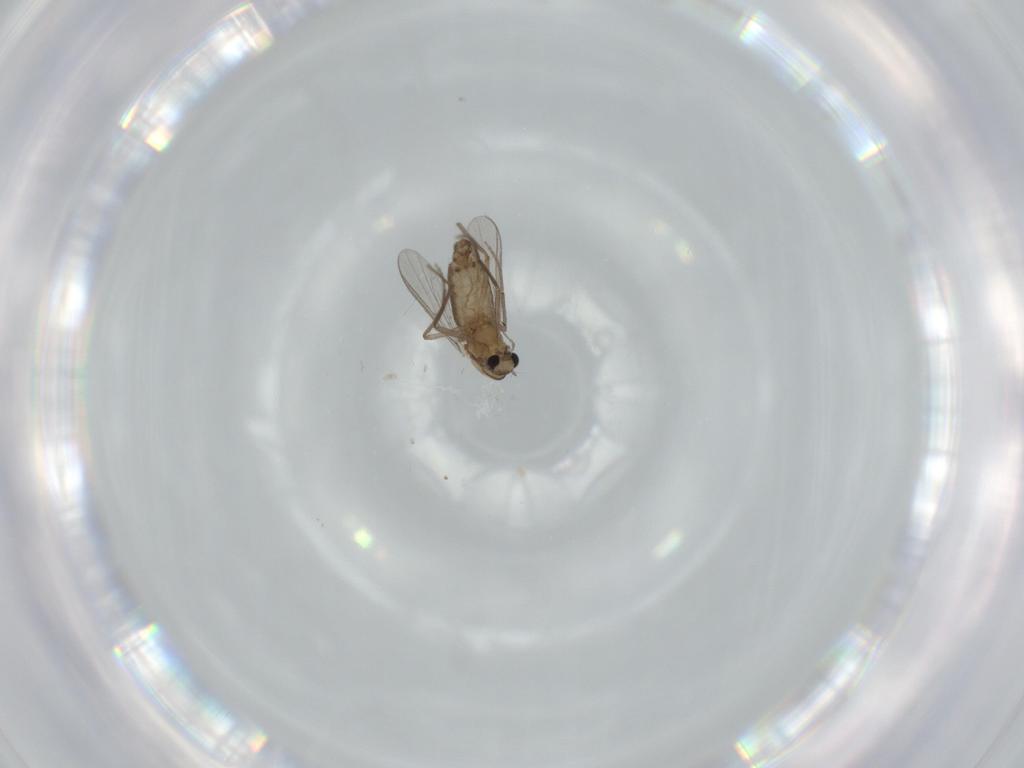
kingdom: Animalia
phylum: Arthropoda
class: Insecta
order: Diptera
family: Chironomidae
